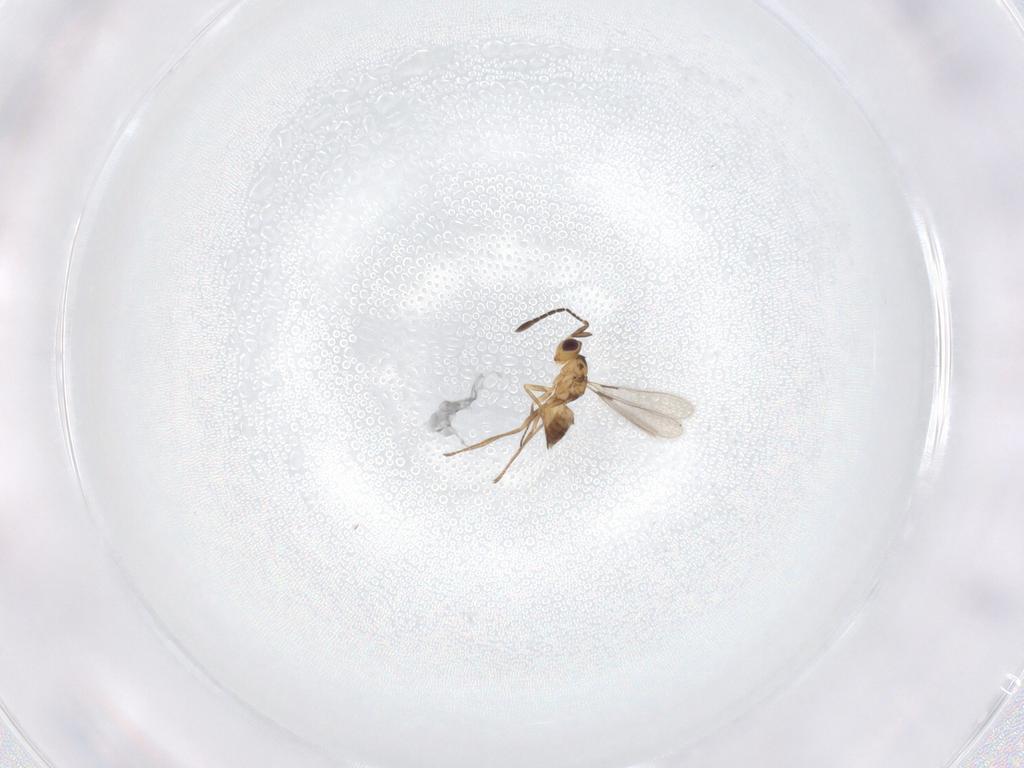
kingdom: Animalia
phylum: Arthropoda
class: Insecta
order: Hymenoptera
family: Mymaridae
